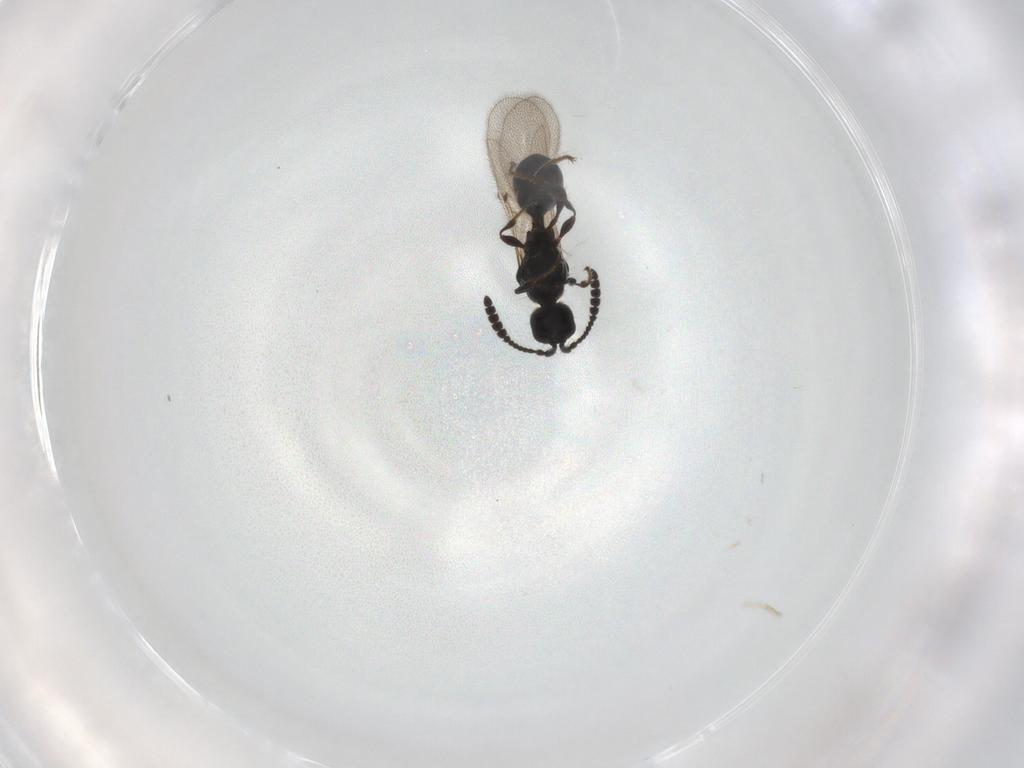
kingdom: Animalia
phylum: Arthropoda
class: Insecta
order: Hymenoptera
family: Diapriidae
